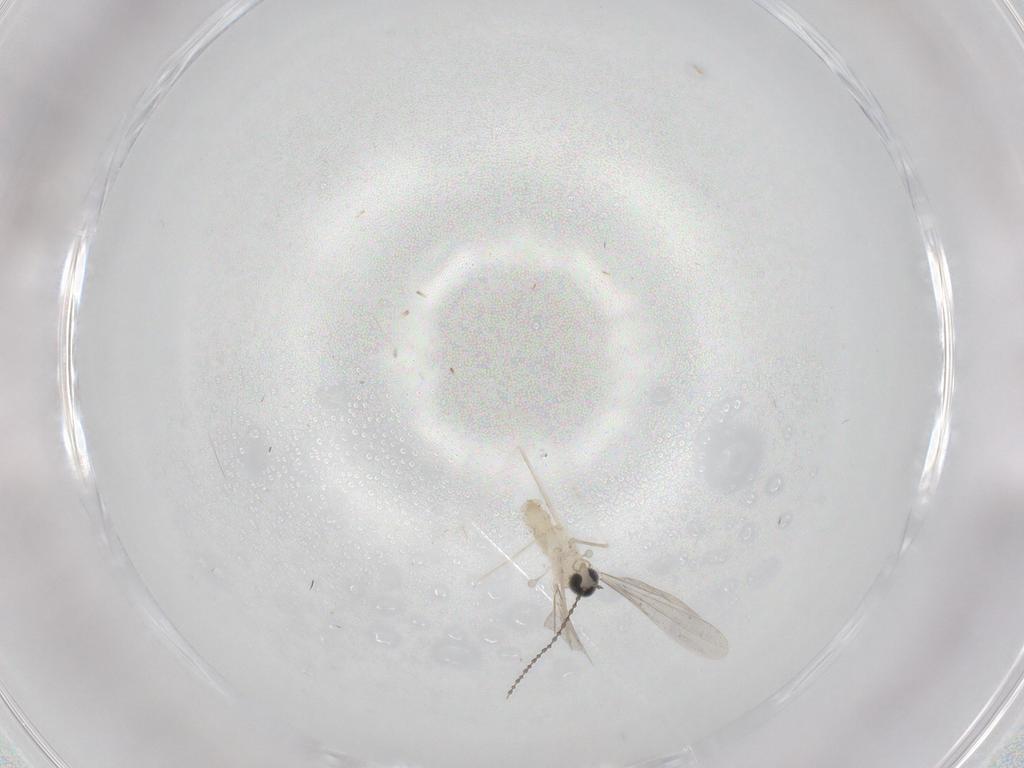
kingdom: Animalia
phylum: Arthropoda
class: Insecta
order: Diptera
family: Cecidomyiidae
